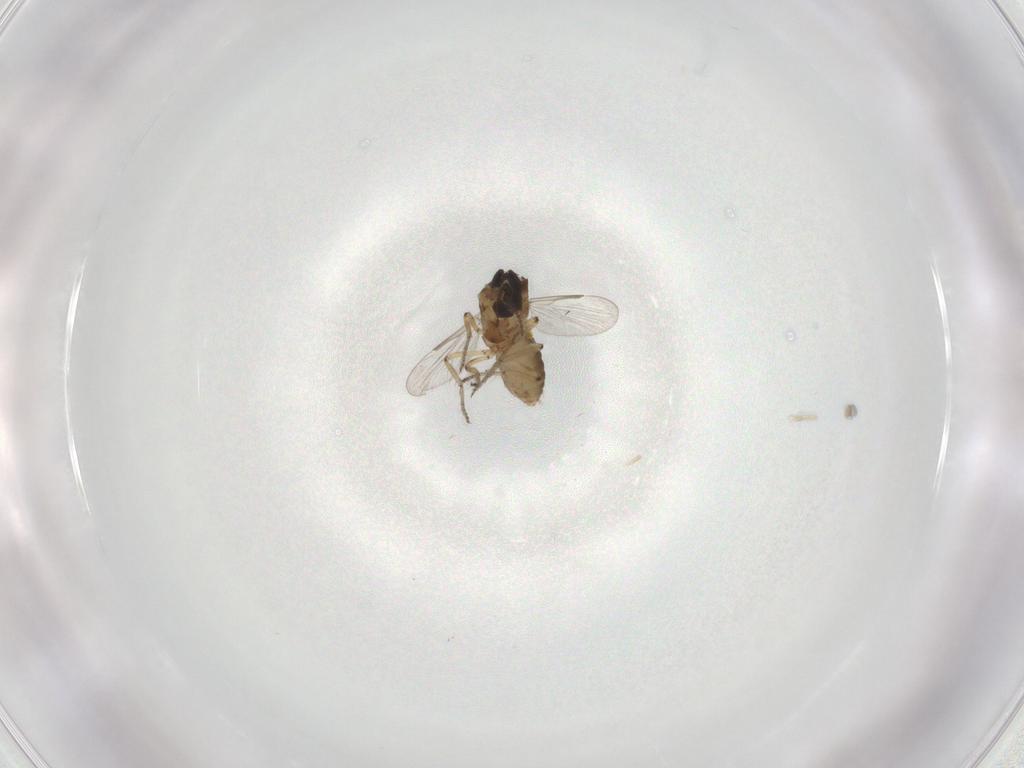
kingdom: Animalia
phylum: Arthropoda
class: Insecta
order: Diptera
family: Ceratopogonidae
